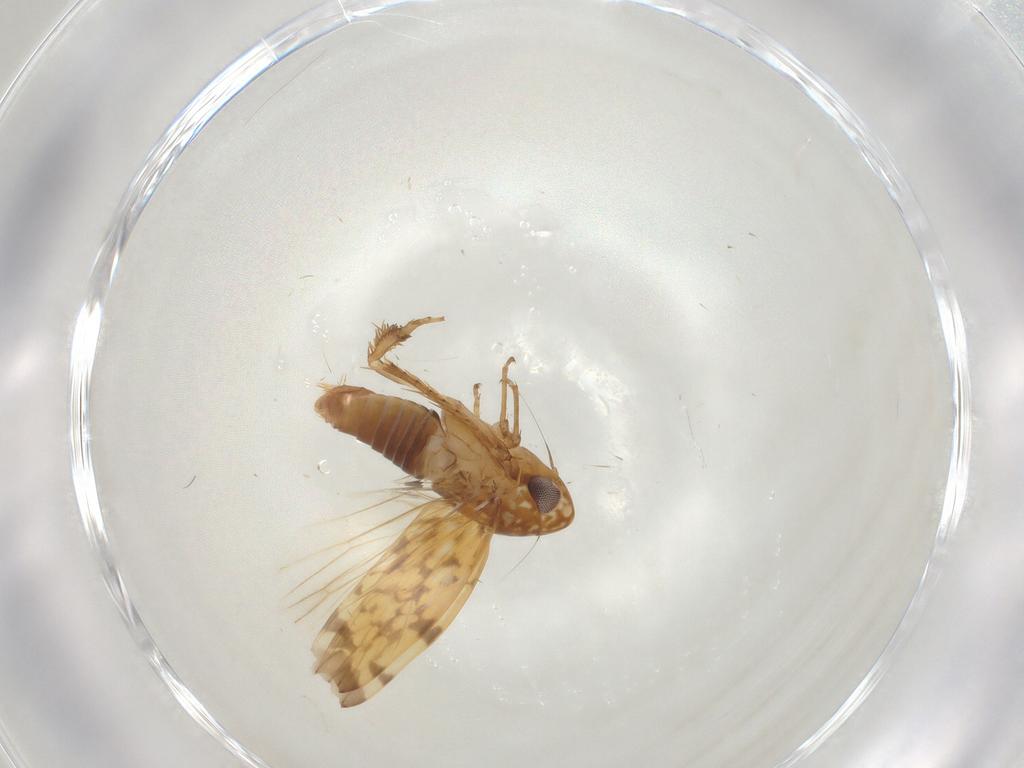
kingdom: Animalia
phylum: Arthropoda
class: Insecta
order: Hemiptera
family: Cicadellidae
